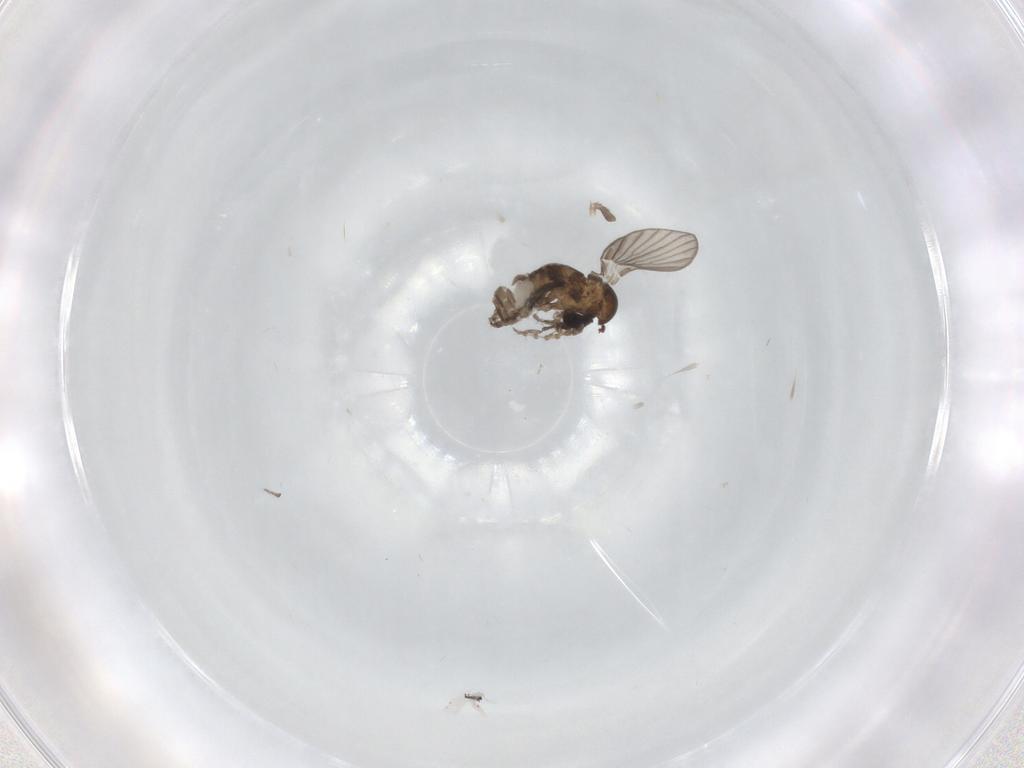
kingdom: Animalia
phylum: Arthropoda
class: Insecta
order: Diptera
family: Psychodidae
